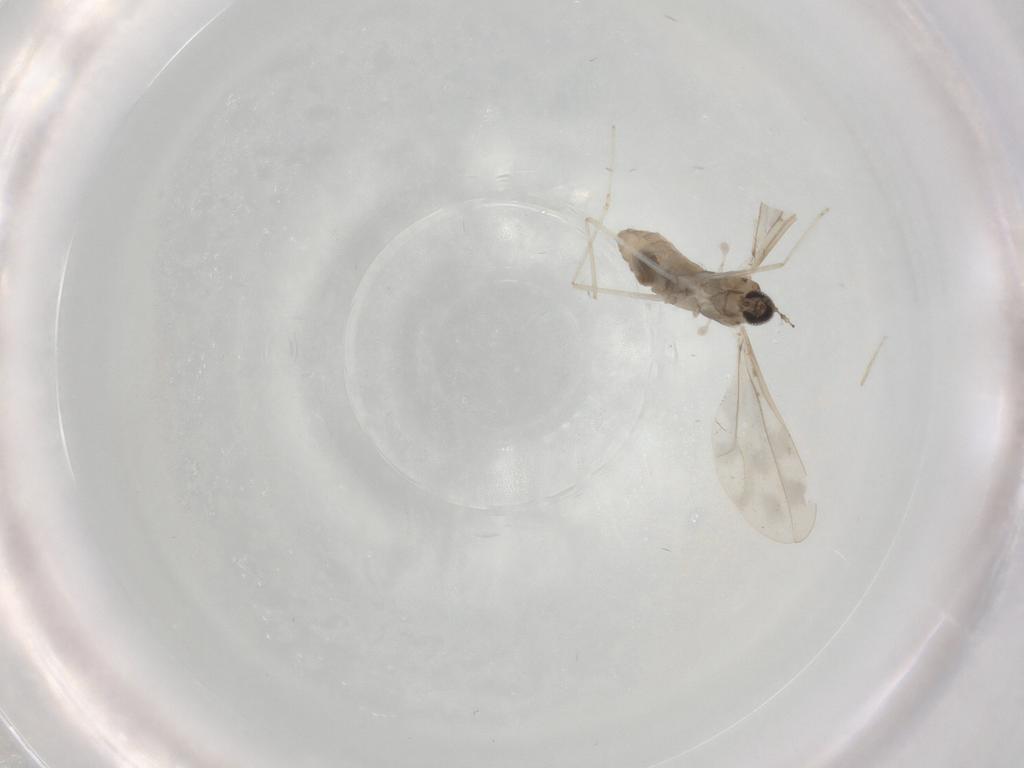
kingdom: Animalia
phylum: Arthropoda
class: Insecta
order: Diptera
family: Cecidomyiidae
